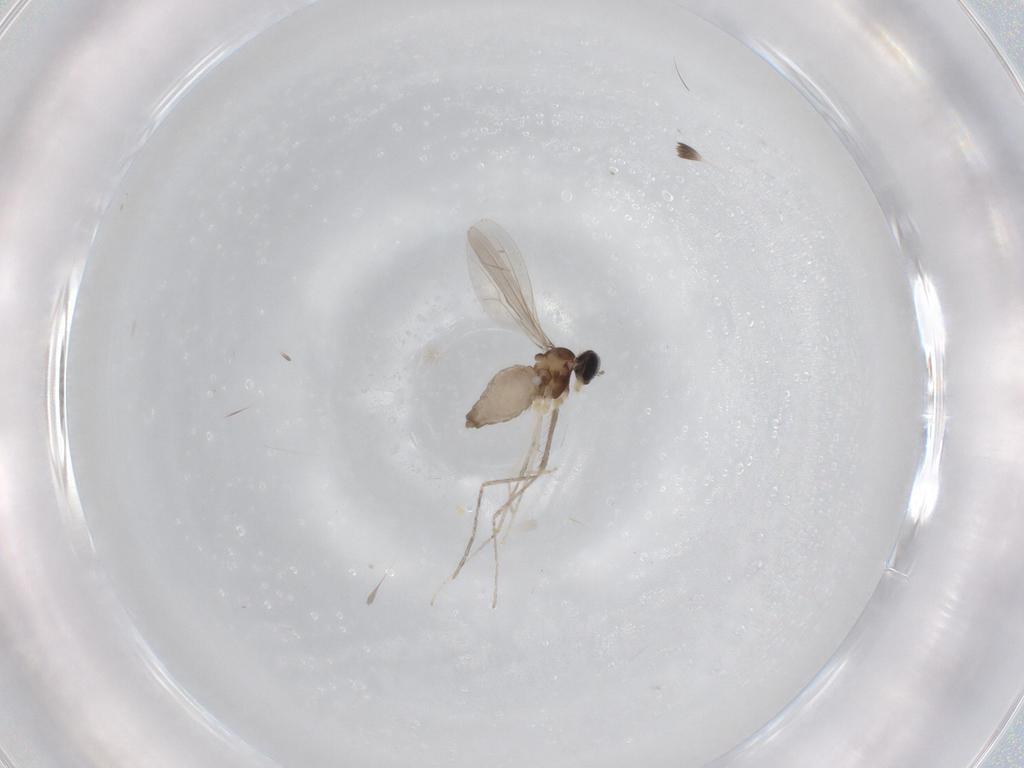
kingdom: Animalia
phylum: Arthropoda
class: Insecta
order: Diptera
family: Cecidomyiidae
